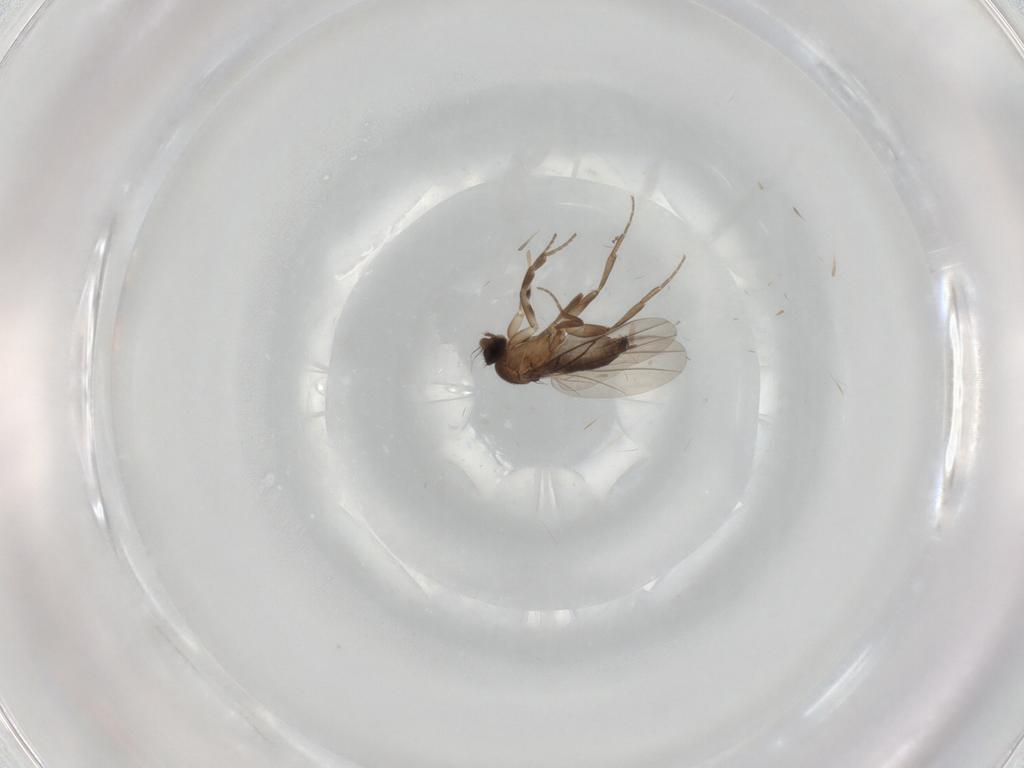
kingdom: Animalia
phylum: Arthropoda
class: Insecta
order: Diptera
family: Phoridae
